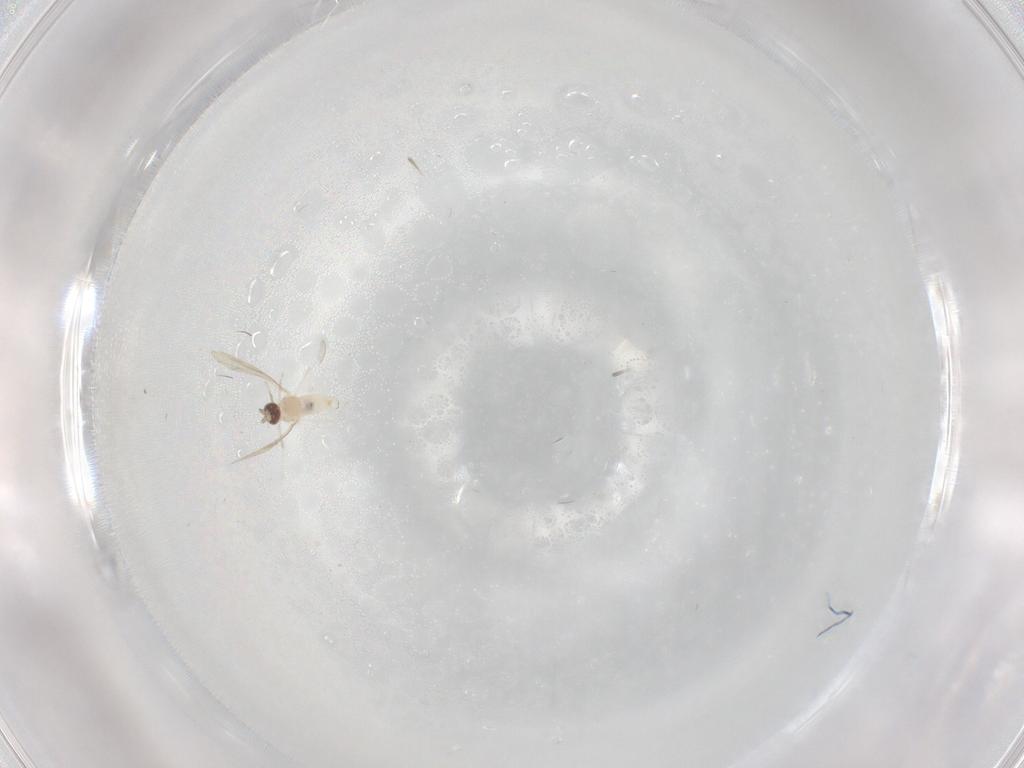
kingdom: Animalia
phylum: Arthropoda
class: Insecta
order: Diptera
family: Cecidomyiidae
